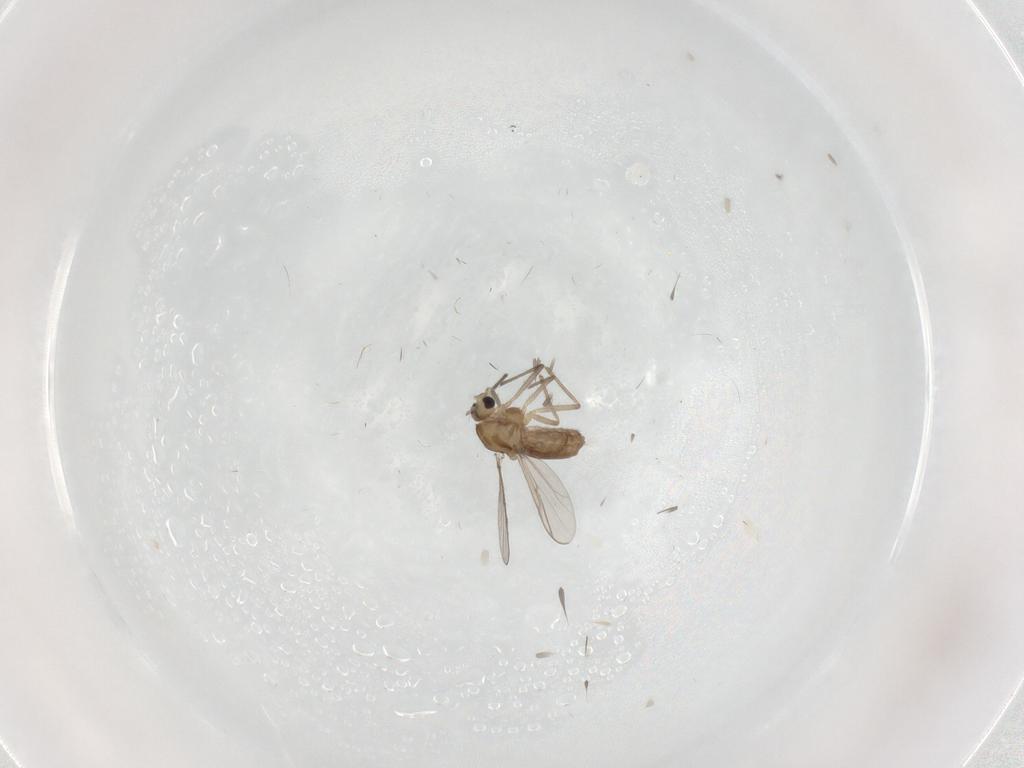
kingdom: Animalia
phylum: Arthropoda
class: Insecta
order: Diptera
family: Chironomidae
